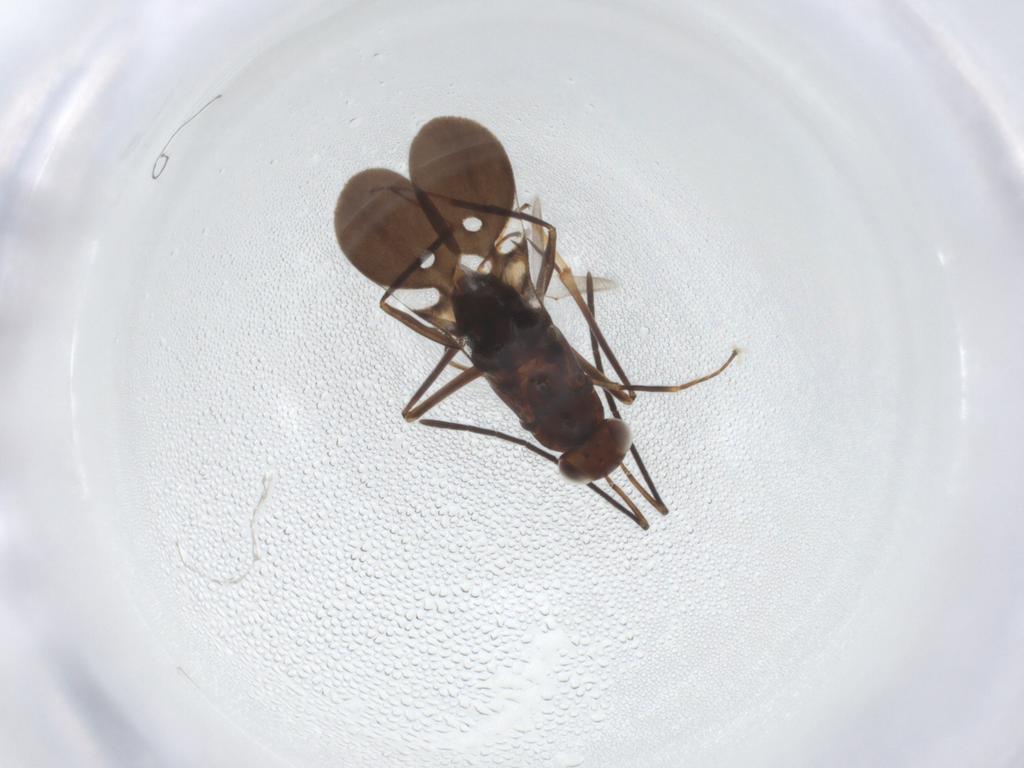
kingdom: Animalia
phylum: Arthropoda
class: Insecta
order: Hymenoptera
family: Encyrtidae
